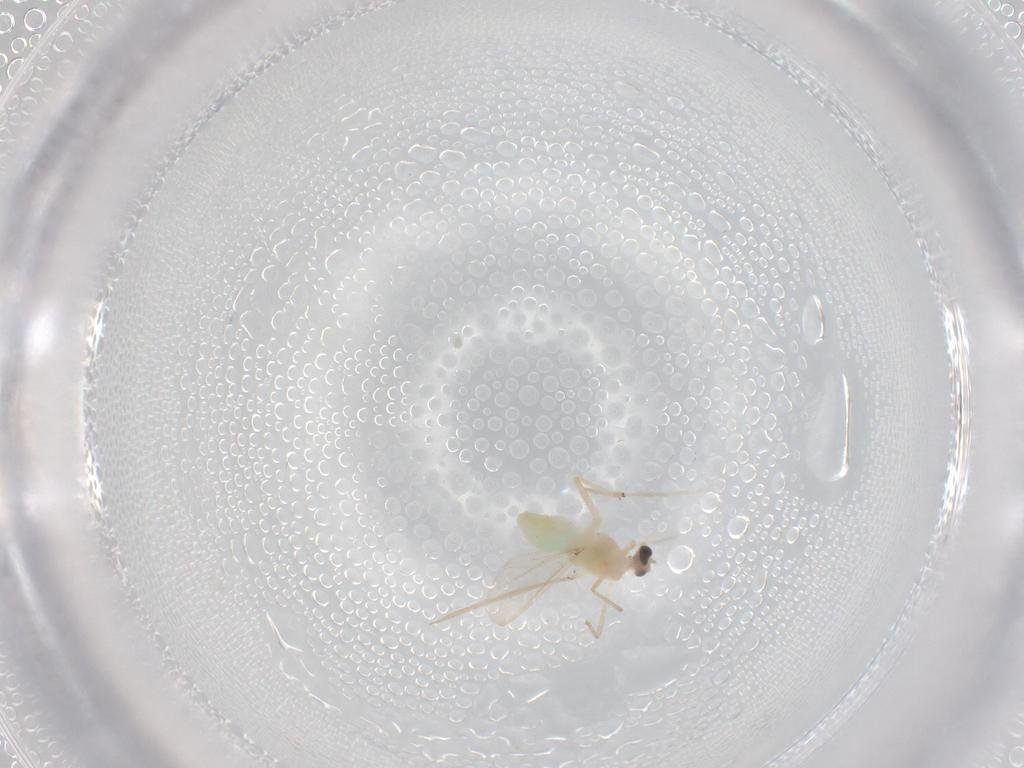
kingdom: Animalia
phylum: Arthropoda
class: Insecta
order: Diptera
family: Chironomidae
